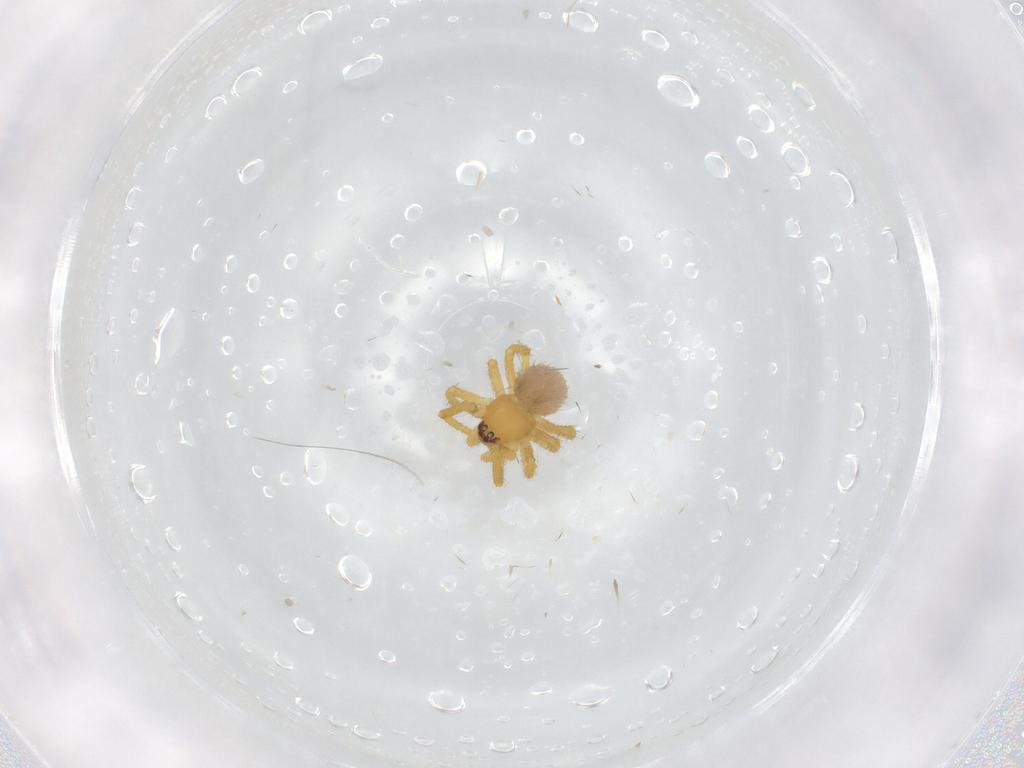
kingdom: Animalia
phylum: Arthropoda
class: Arachnida
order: Araneae
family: Theridiidae
